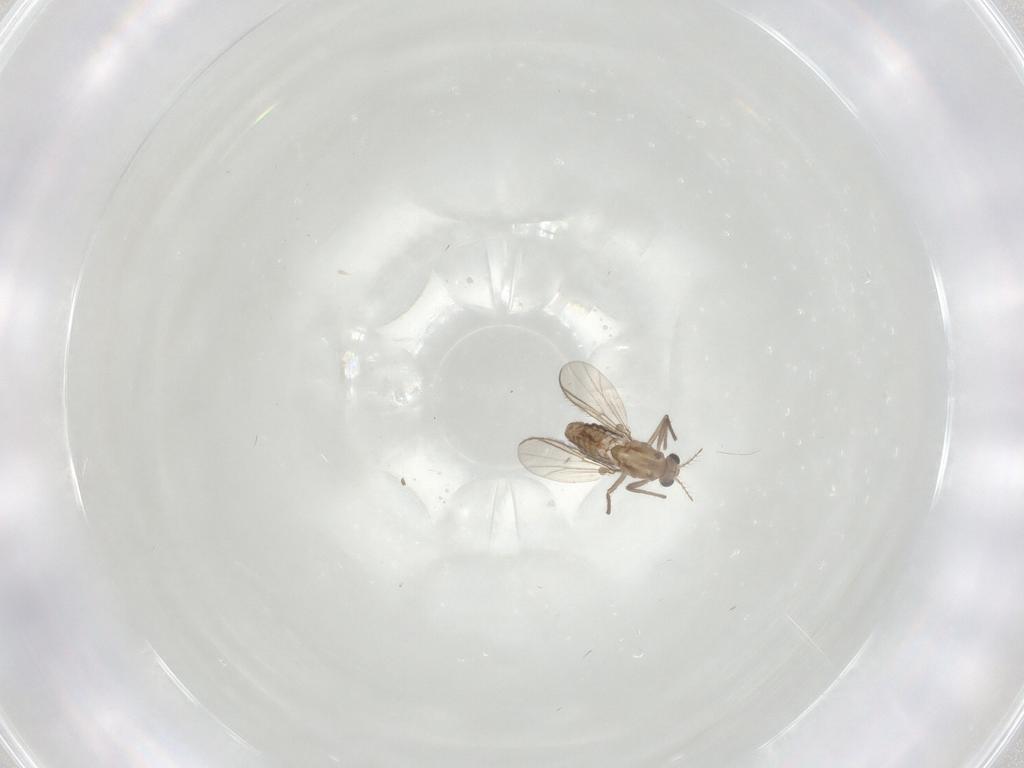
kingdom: Animalia
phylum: Arthropoda
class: Insecta
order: Diptera
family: Chironomidae
